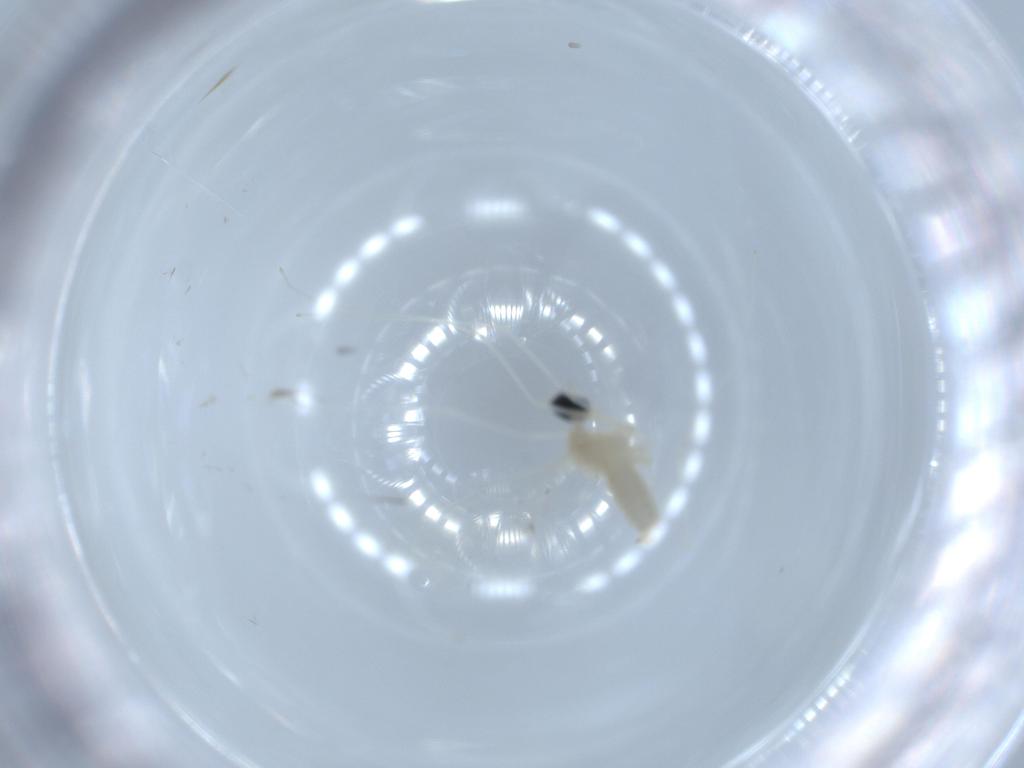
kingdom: Animalia
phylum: Arthropoda
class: Insecta
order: Diptera
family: Cecidomyiidae
